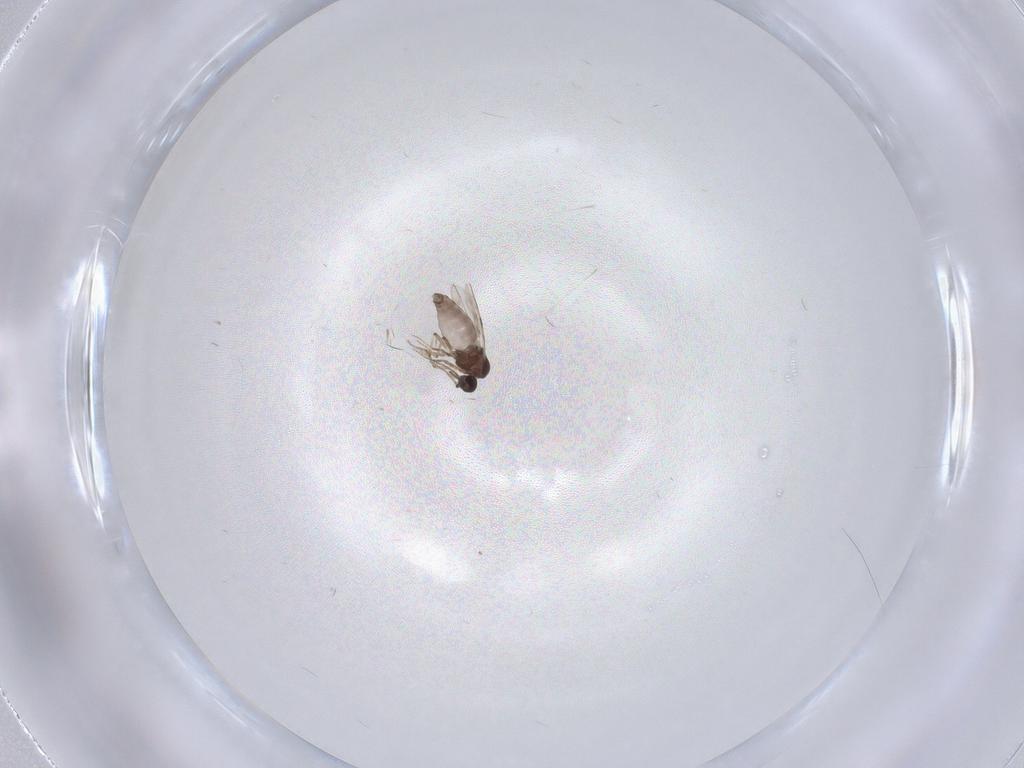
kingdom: Animalia
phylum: Arthropoda
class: Insecta
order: Diptera
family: Sciaridae
